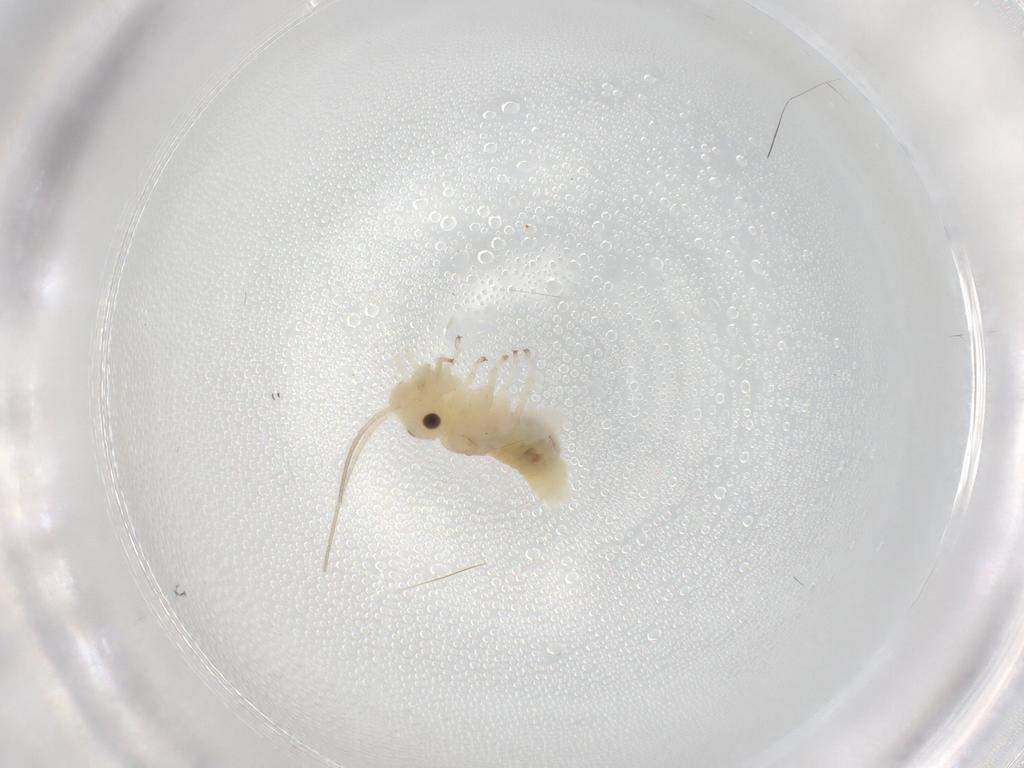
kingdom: Animalia
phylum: Arthropoda
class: Insecta
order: Psocodea
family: Caeciliusidae
